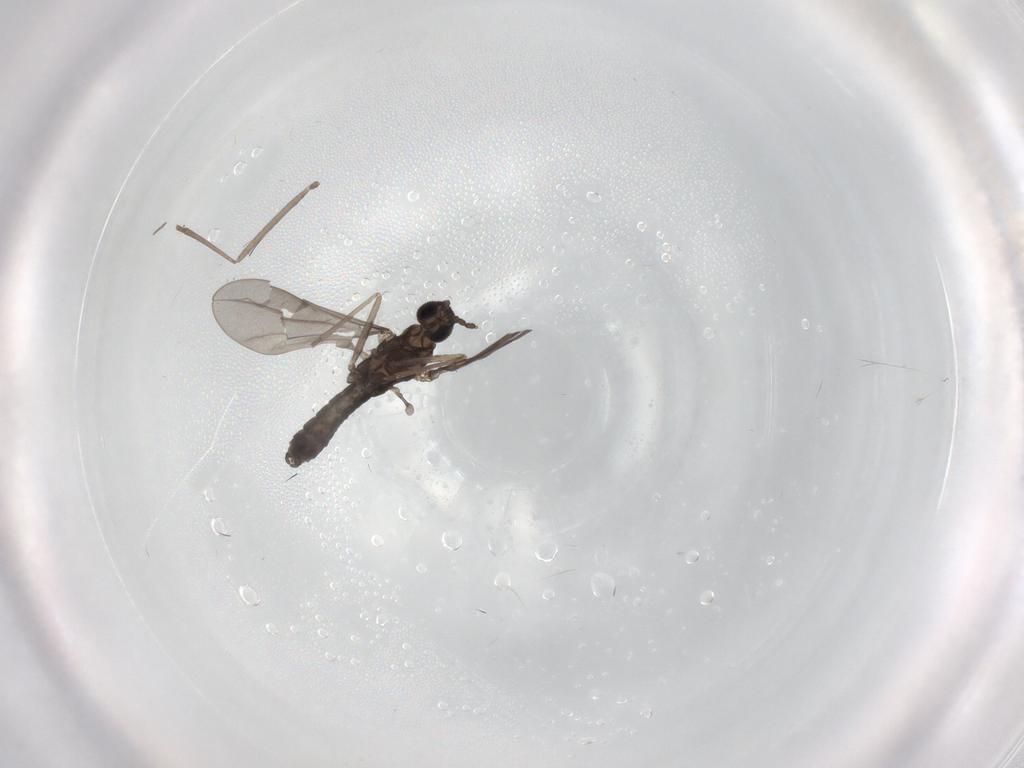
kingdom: Animalia
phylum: Arthropoda
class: Insecta
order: Diptera
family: Cecidomyiidae
